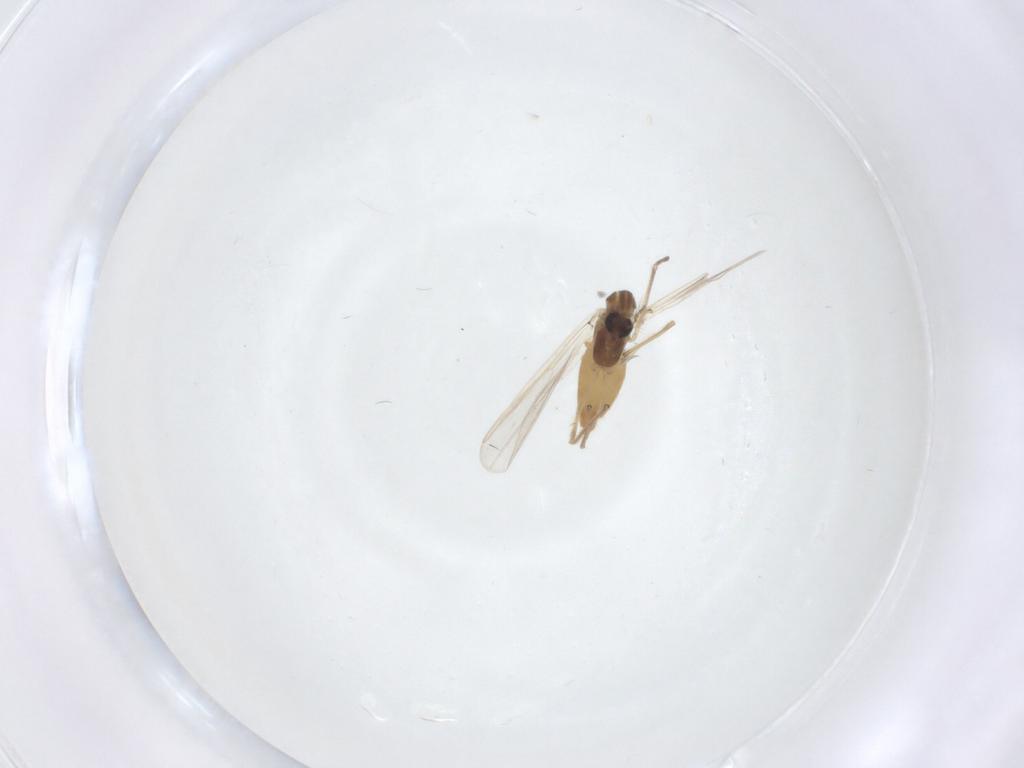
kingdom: Animalia
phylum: Arthropoda
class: Insecta
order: Diptera
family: Chironomidae
